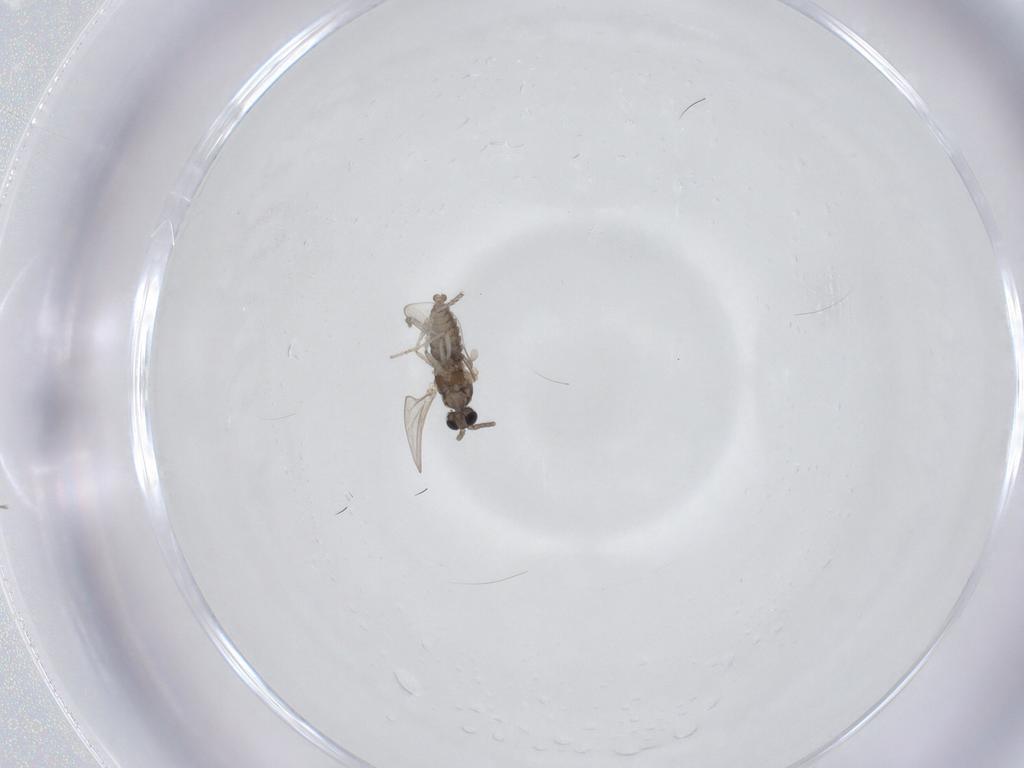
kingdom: Animalia
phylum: Arthropoda
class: Insecta
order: Diptera
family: Cecidomyiidae
